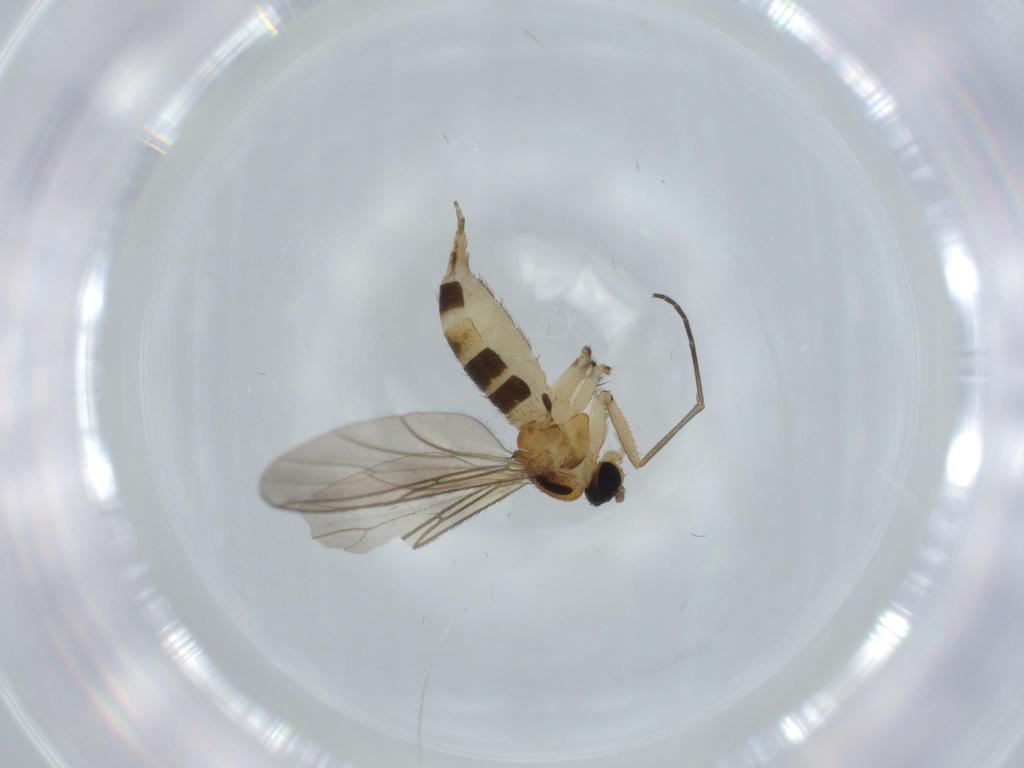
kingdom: Animalia
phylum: Arthropoda
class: Insecta
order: Diptera
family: Sciaridae
